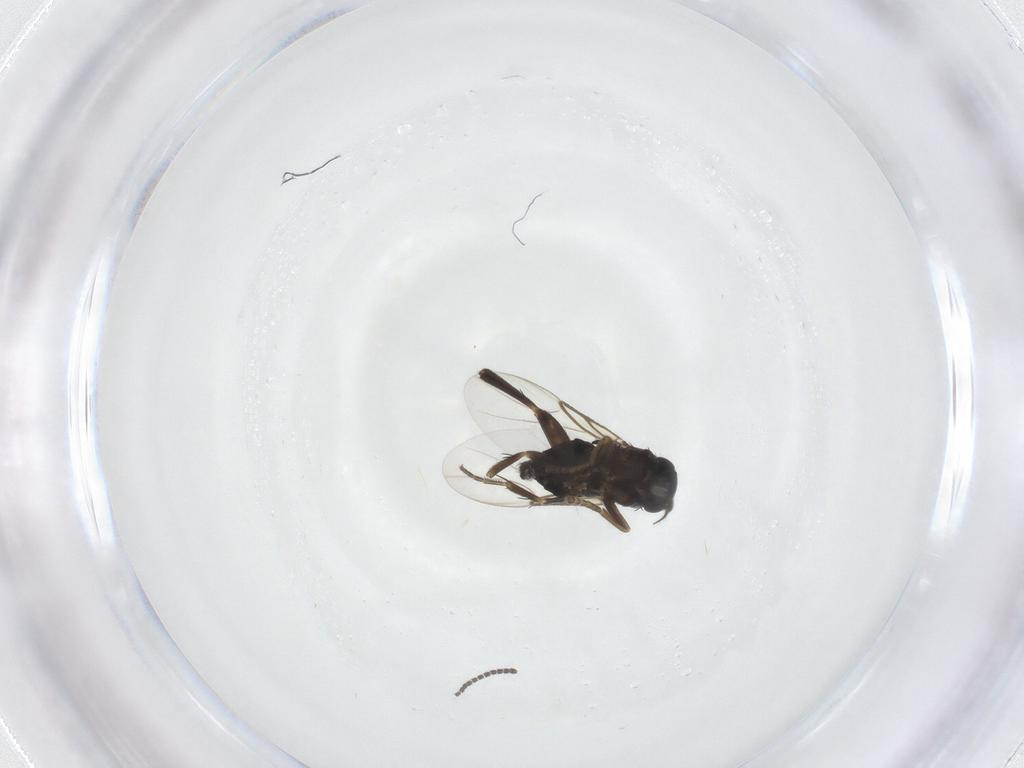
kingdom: Animalia
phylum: Arthropoda
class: Insecta
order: Diptera
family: Phoridae
